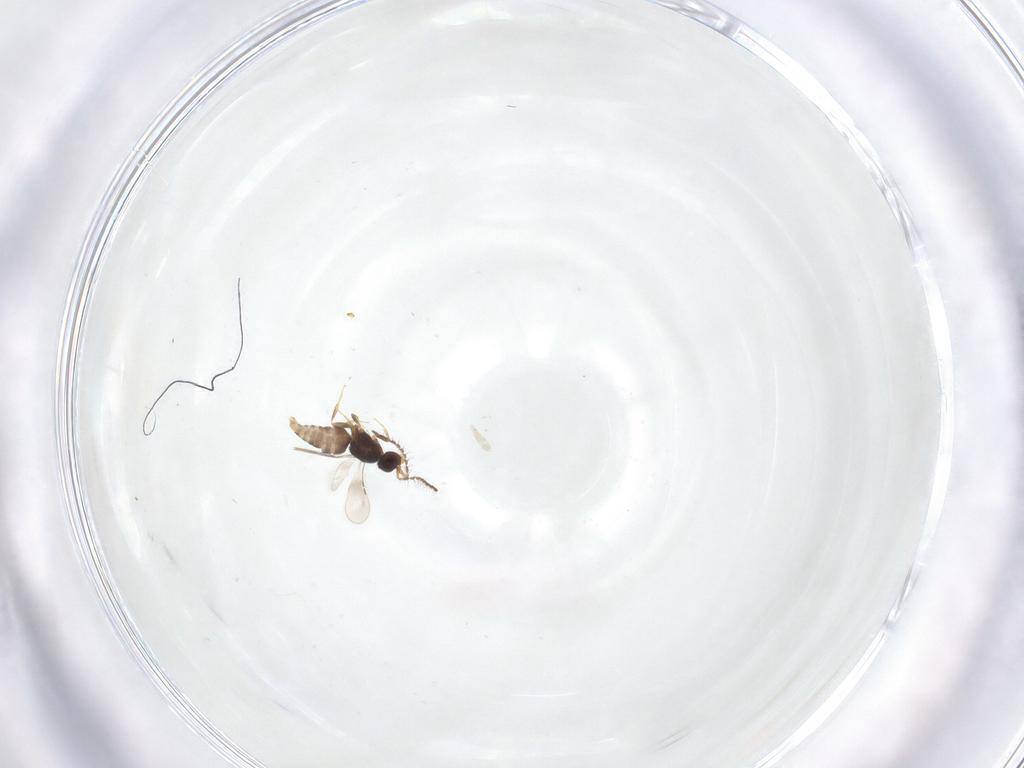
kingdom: Animalia
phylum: Arthropoda
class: Insecta
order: Hymenoptera
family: Ceraphronidae
